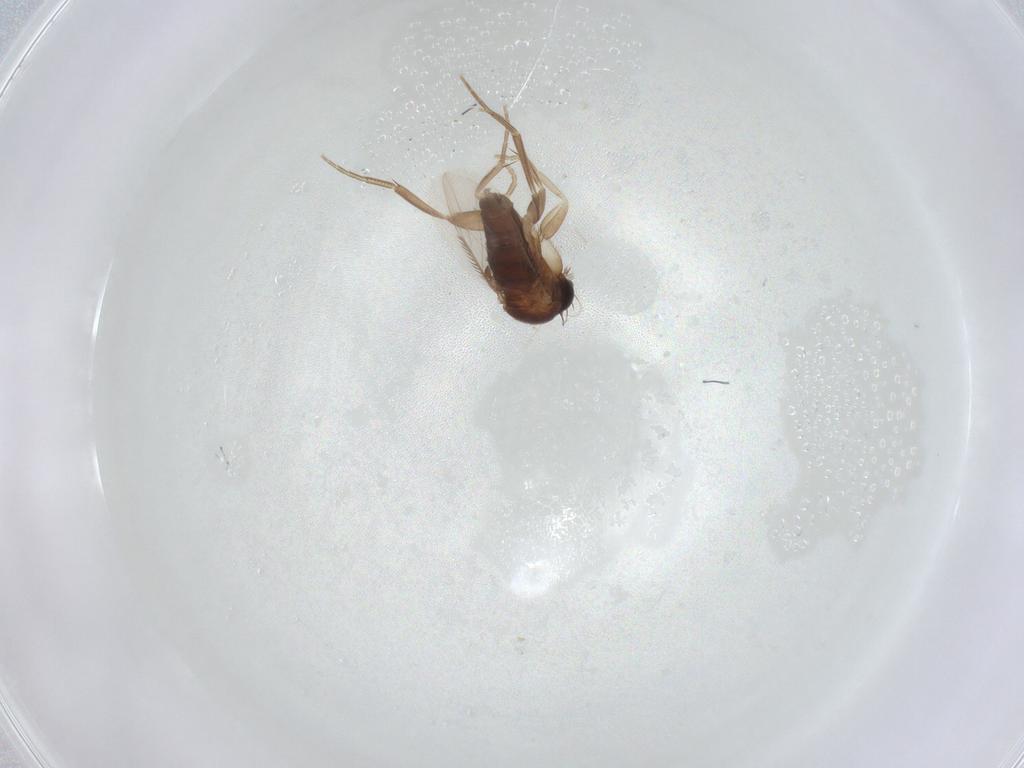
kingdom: Animalia
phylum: Arthropoda
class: Insecta
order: Diptera
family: Phoridae
